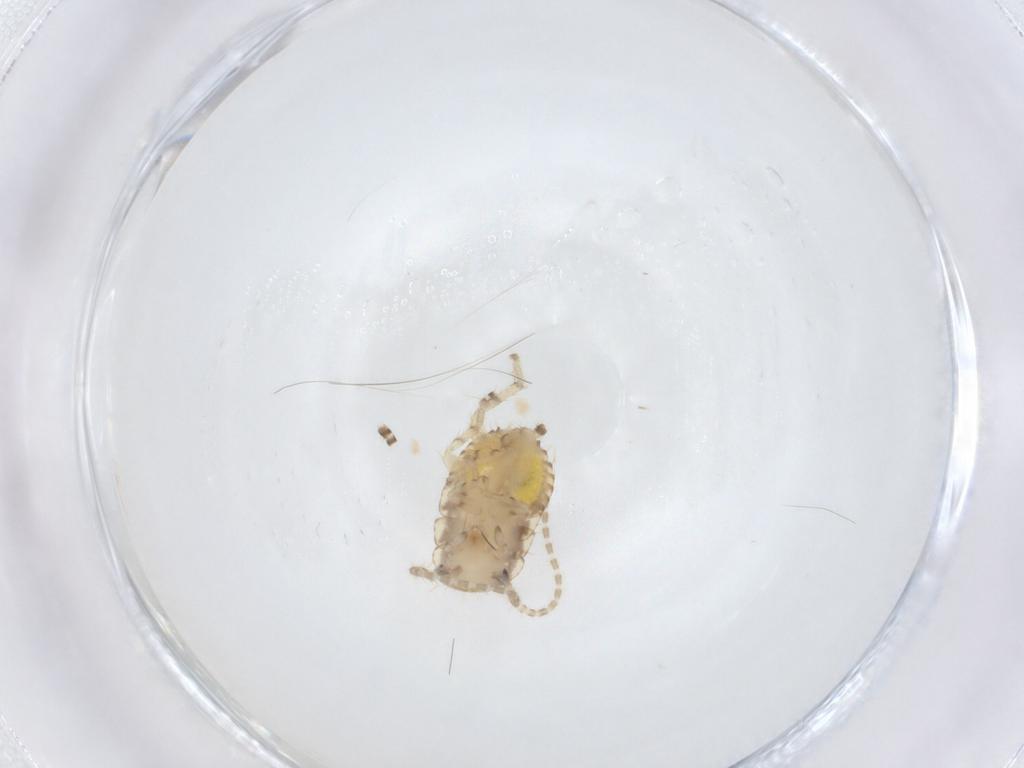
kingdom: Animalia
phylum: Arthropoda
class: Insecta
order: Blattodea
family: Ectobiidae
